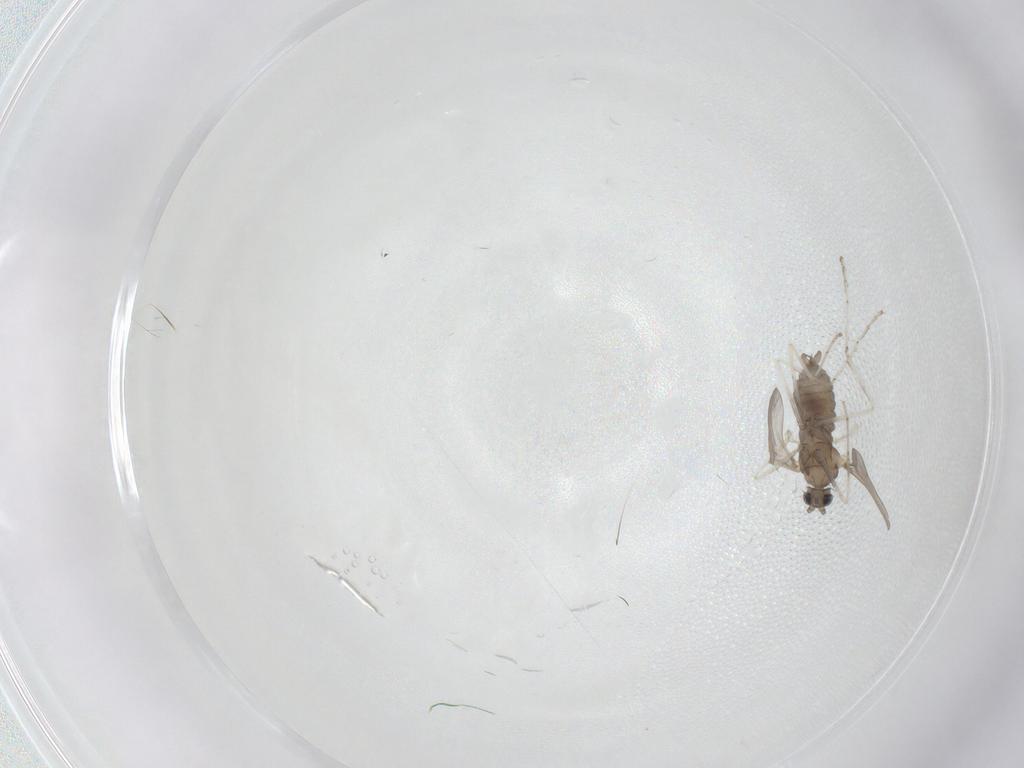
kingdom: Animalia
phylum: Arthropoda
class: Insecta
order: Diptera
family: Cecidomyiidae
